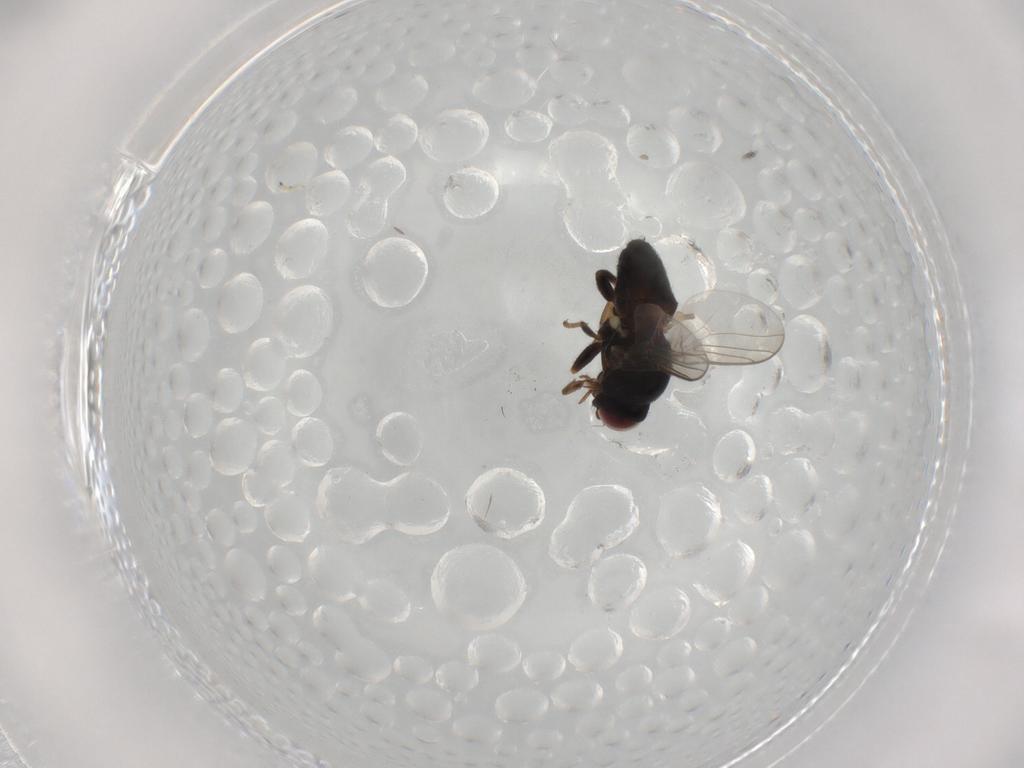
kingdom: Animalia
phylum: Arthropoda
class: Insecta
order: Diptera
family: Chloropidae
